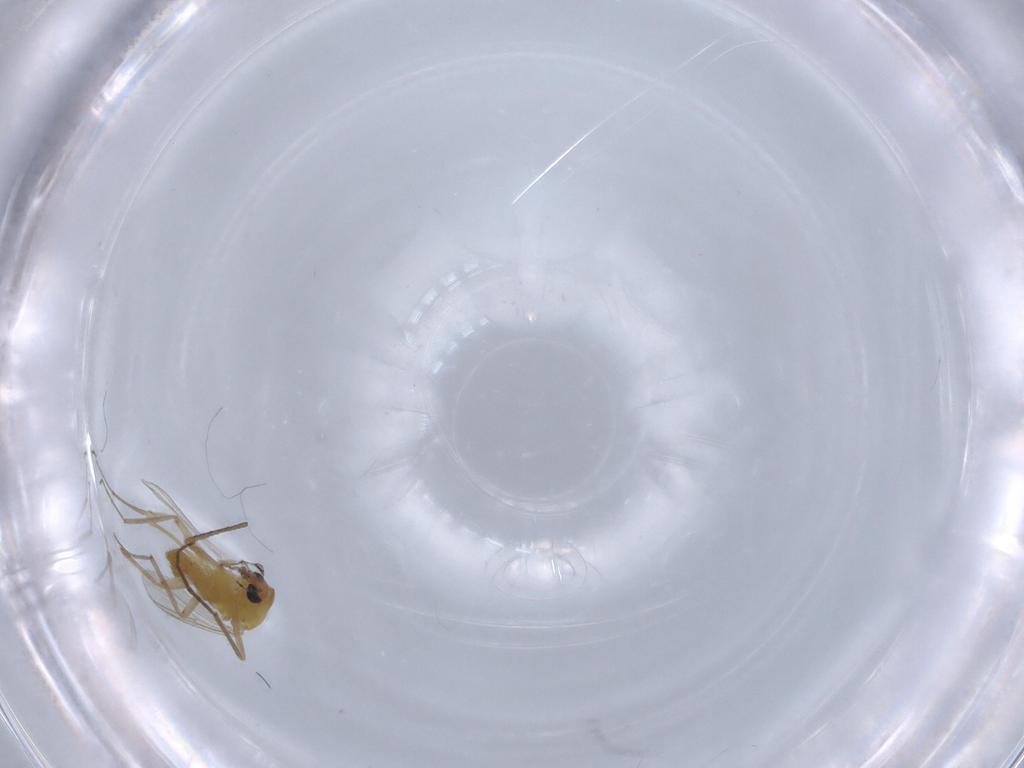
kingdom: Animalia
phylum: Arthropoda
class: Insecta
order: Diptera
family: Chironomidae
